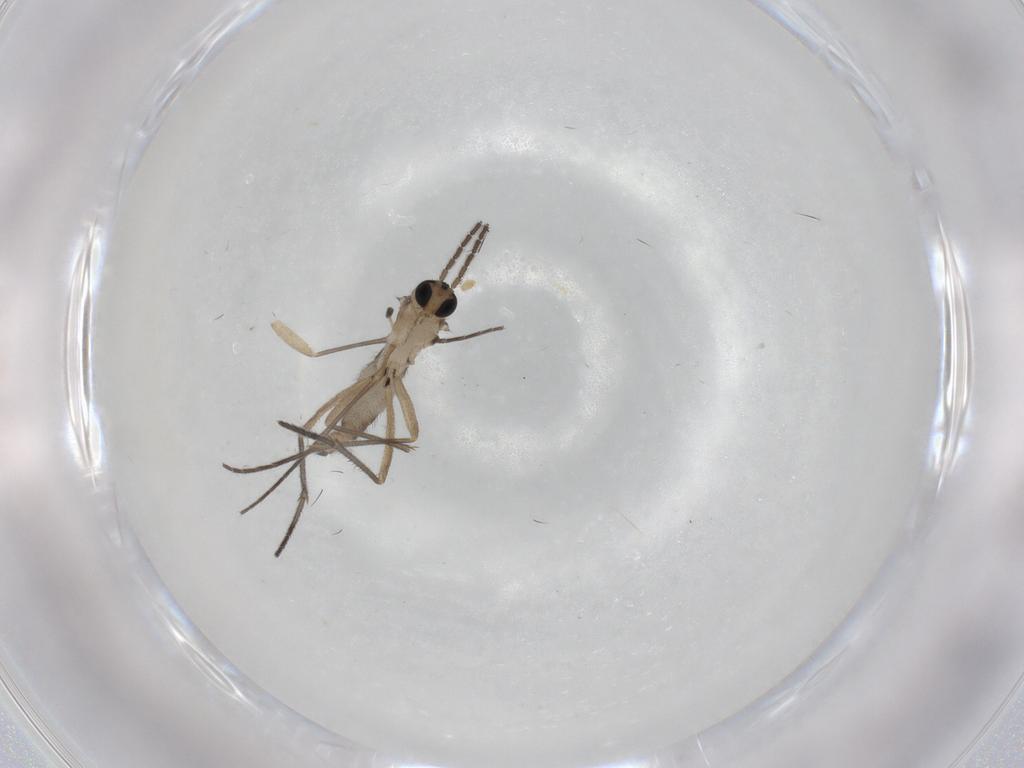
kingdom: Animalia
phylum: Arthropoda
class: Insecta
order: Diptera
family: Sciaridae
